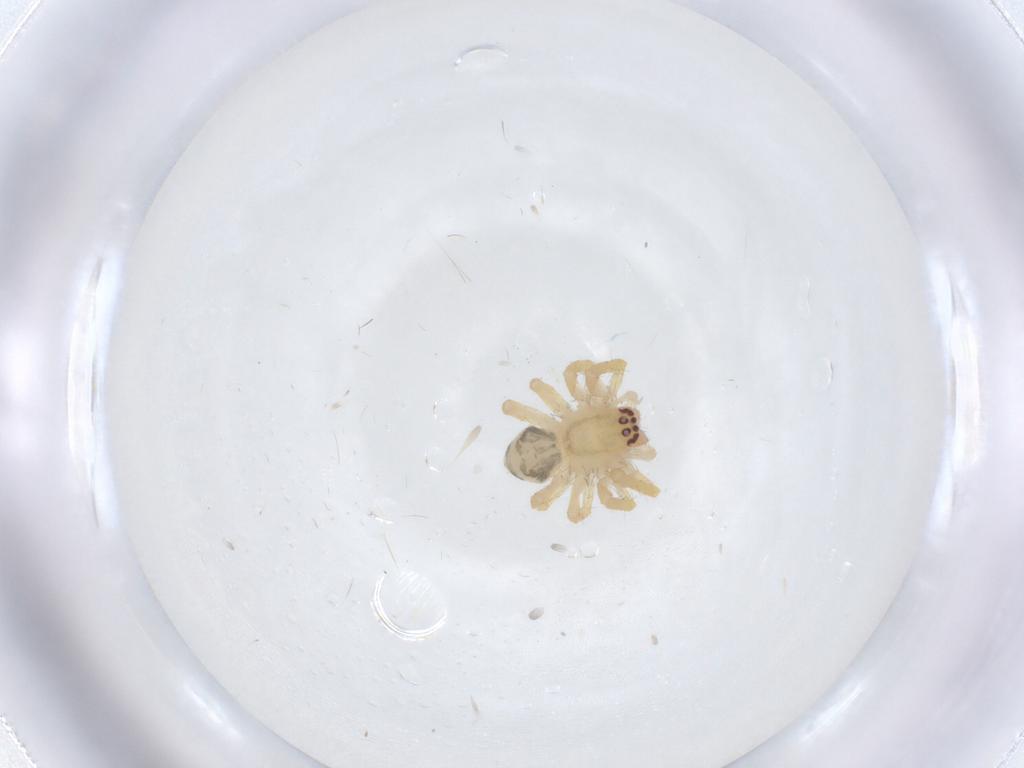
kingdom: Animalia
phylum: Arthropoda
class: Arachnida
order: Araneae
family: Desidae
